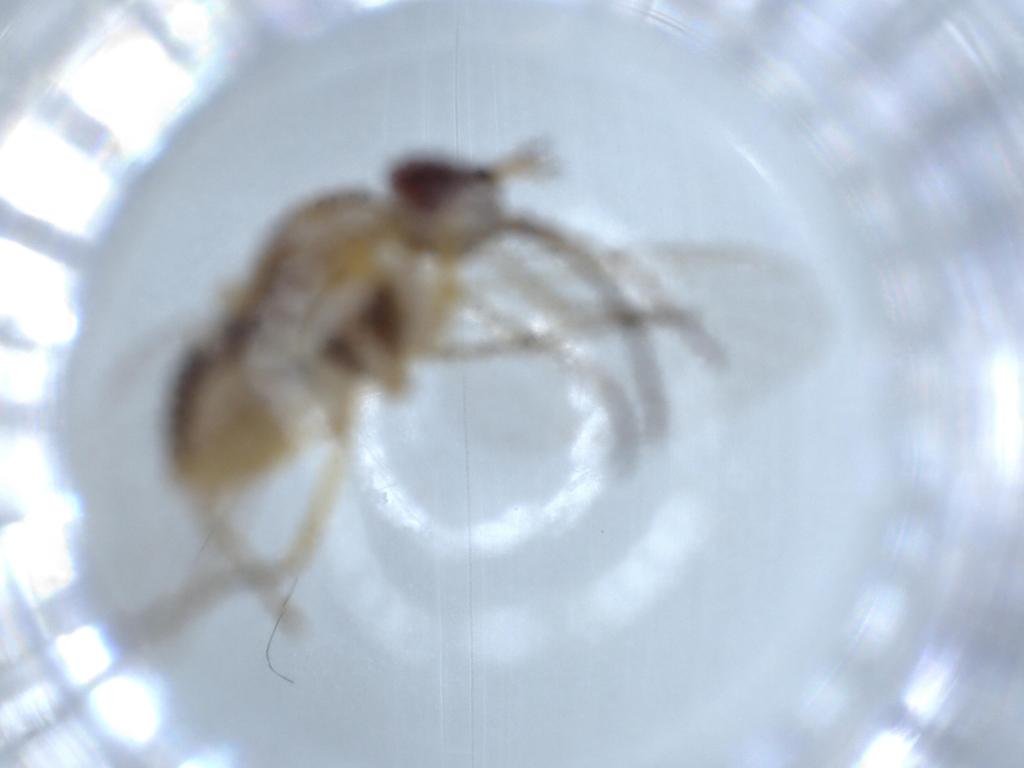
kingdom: Animalia
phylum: Arthropoda
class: Insecta
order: Diptera
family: Bombyliidae
